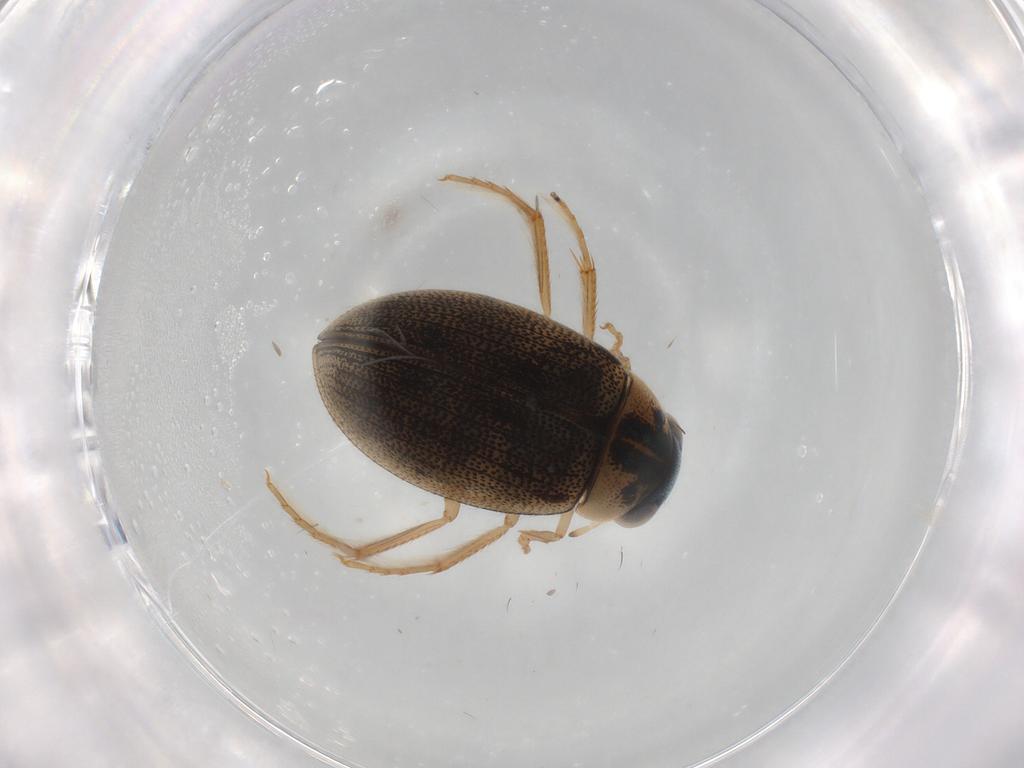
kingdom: Animalia
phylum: Arthropoda
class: Insecta
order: Coleoptera
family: Hydrophilidae
